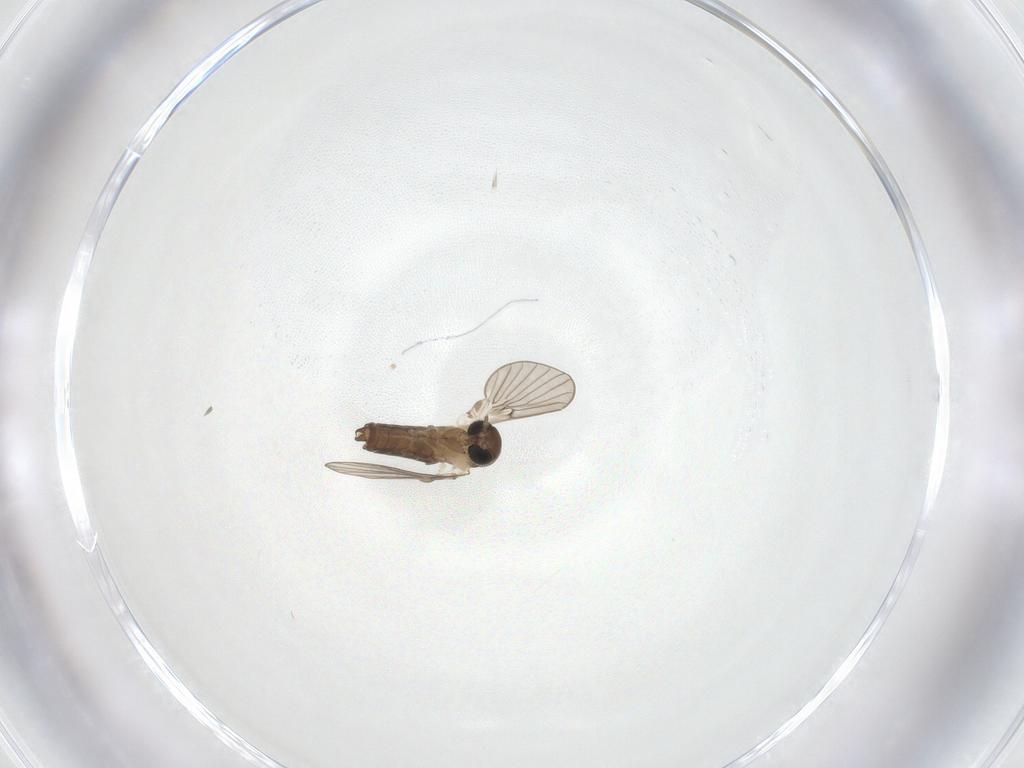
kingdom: Animalia
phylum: Arthropoda
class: Insecta
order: Diptera
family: Psychodidae
